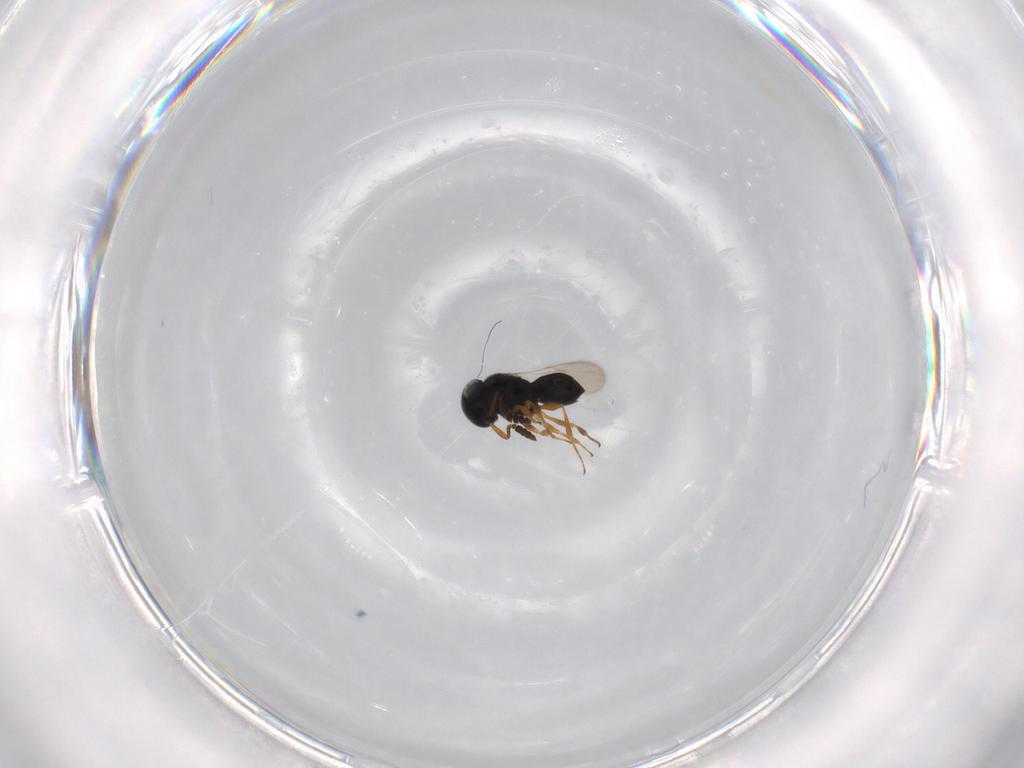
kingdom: Animalia
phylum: Arthropoda
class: Insecta
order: Hymenoptera
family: Scelionidae
